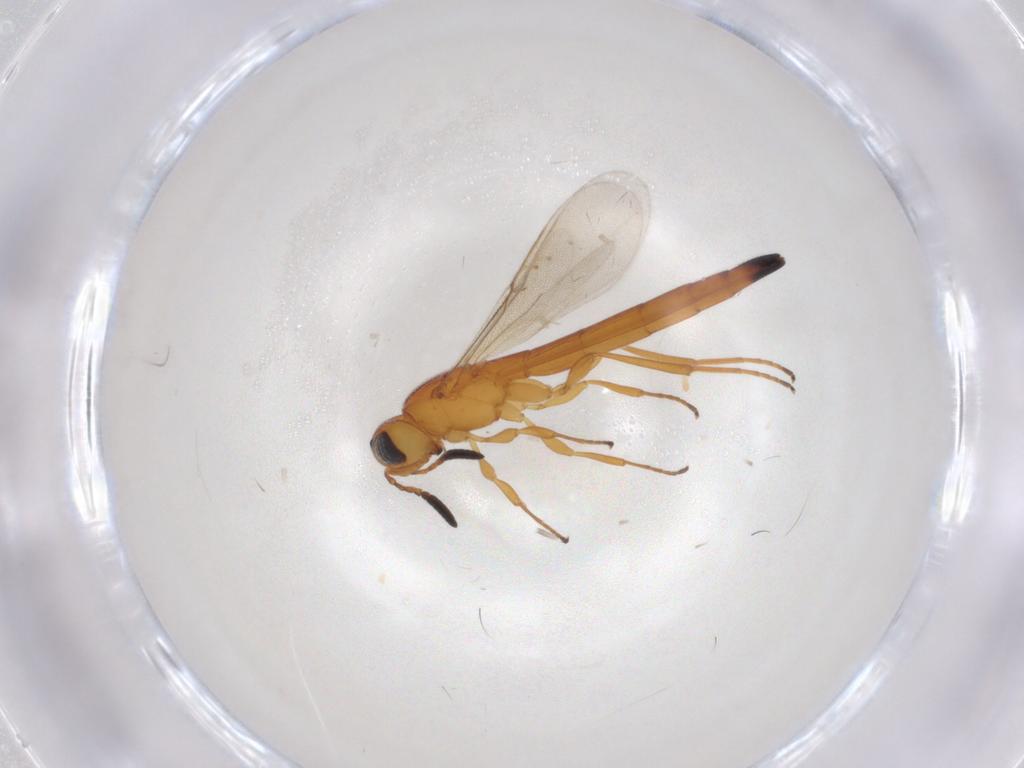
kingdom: Animalia
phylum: Arthropoda
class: Insecta
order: Hymenoptera
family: Scelionidae
